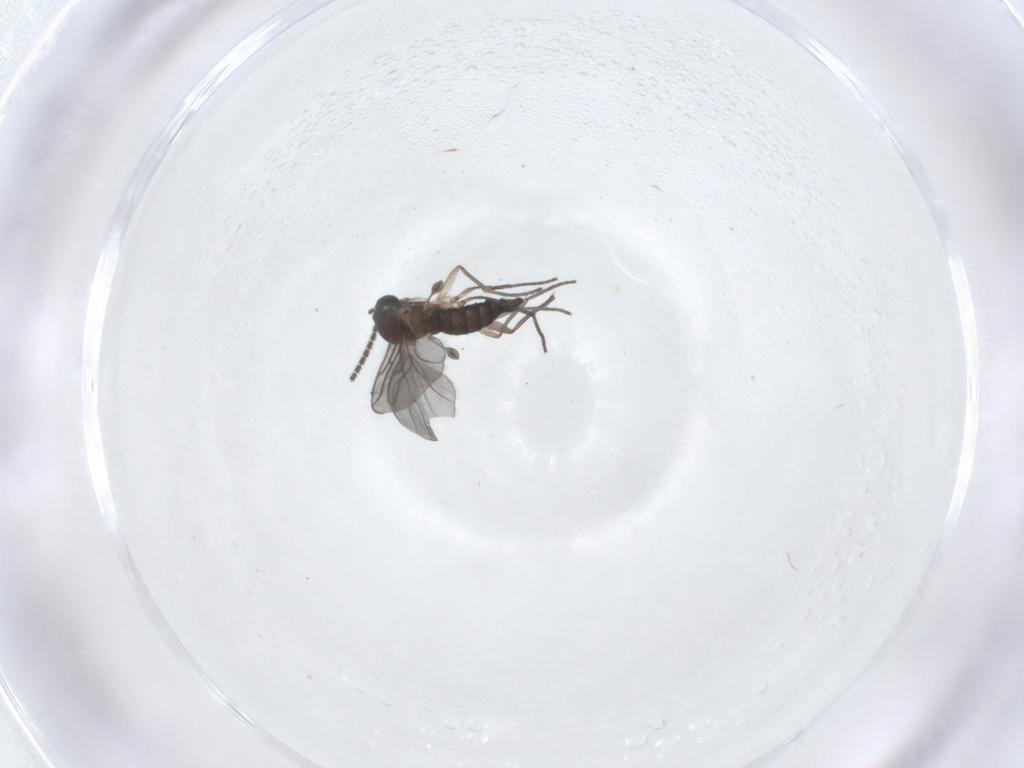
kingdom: Animalia
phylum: Arthropoda
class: Insecta
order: Diptera
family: Sciaridae
